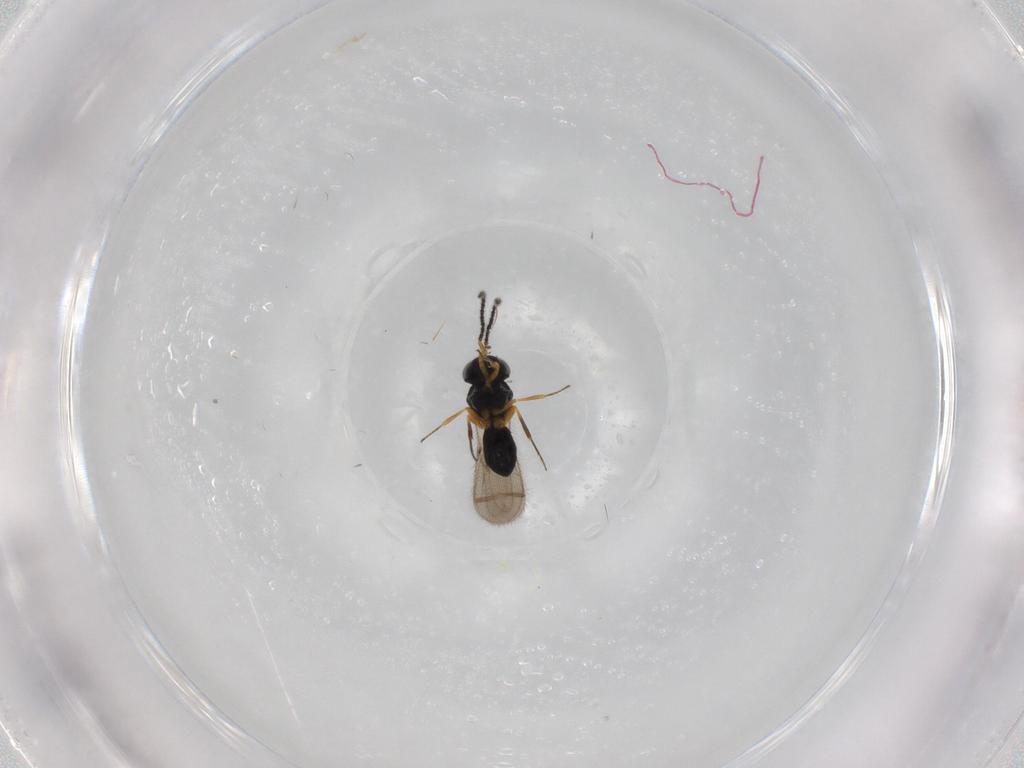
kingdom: Animalia
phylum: Arthropoda
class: Insecta
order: Hymenoptera
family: Scelionidae
